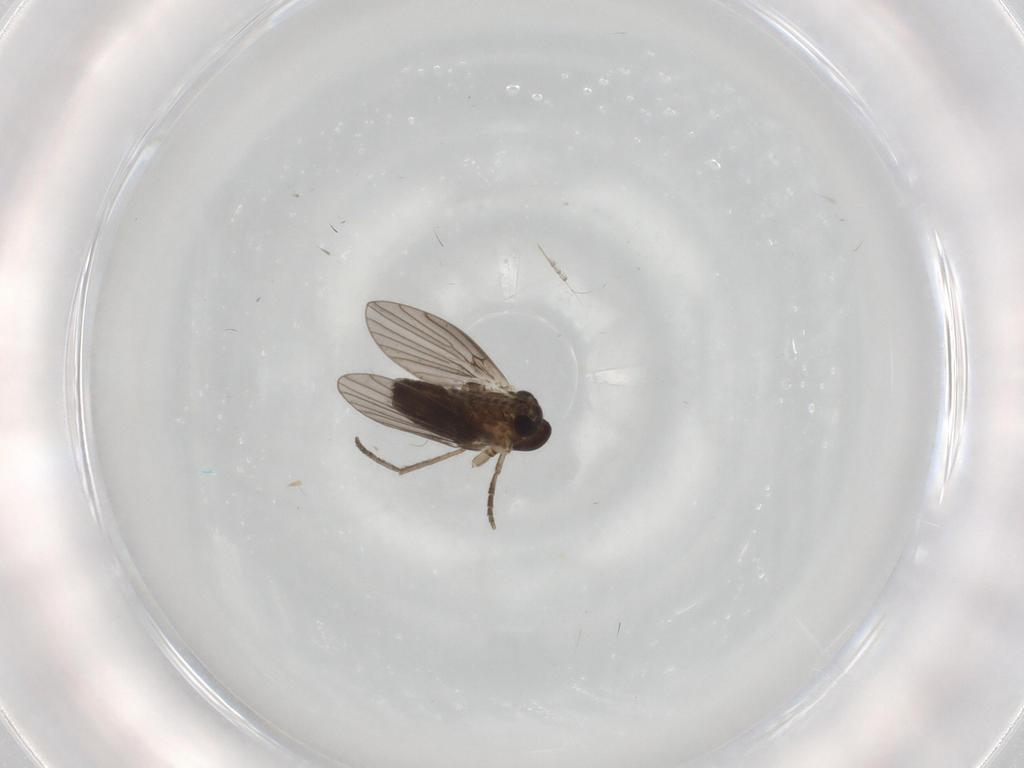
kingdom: Animalia
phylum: Arthropoda
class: Insecta
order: Diptera
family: Cecidomyiidae
